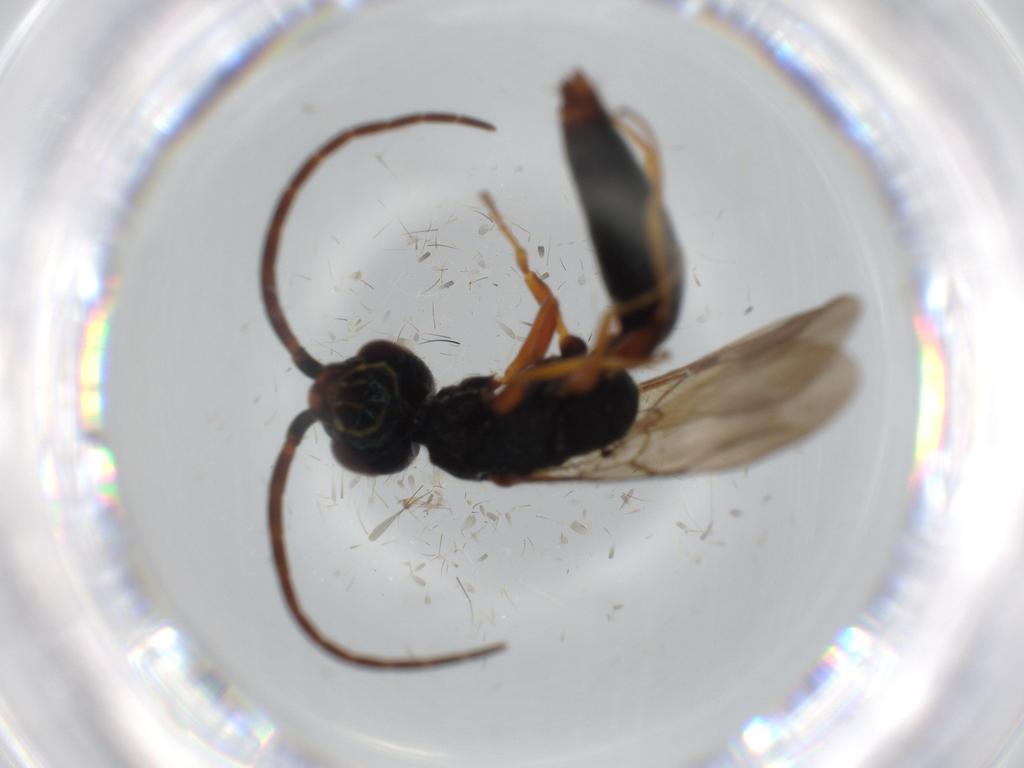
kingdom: Animalia
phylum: Arthropoda
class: Insecta
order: Hymenoptera
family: Bethylidae
